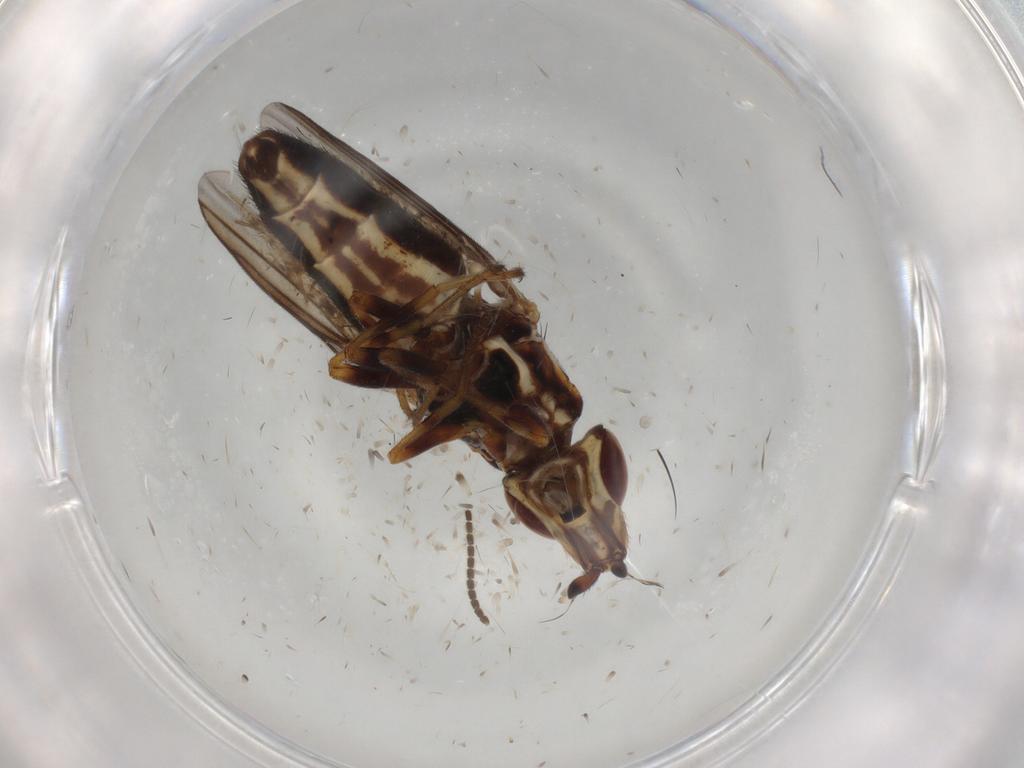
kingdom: Animalia
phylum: Arthropoda
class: Insecta
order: Diptera
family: Chloropidae
